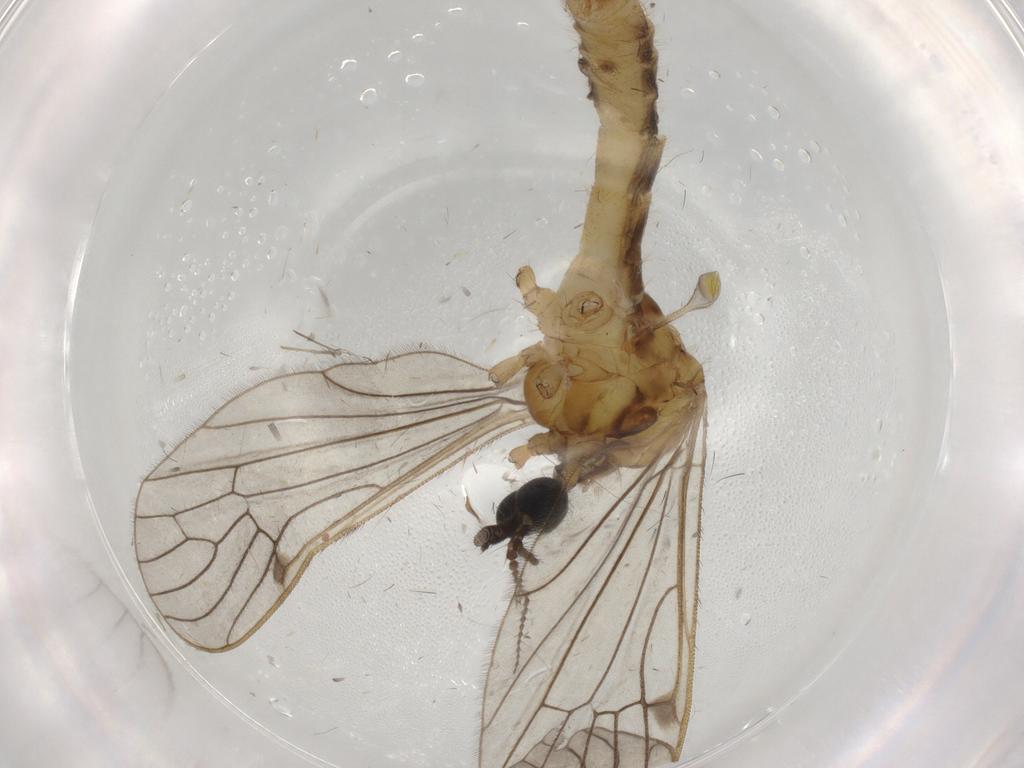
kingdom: Animalia
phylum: Arthropoda
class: Insecta
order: Diptera
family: Limoniidae
